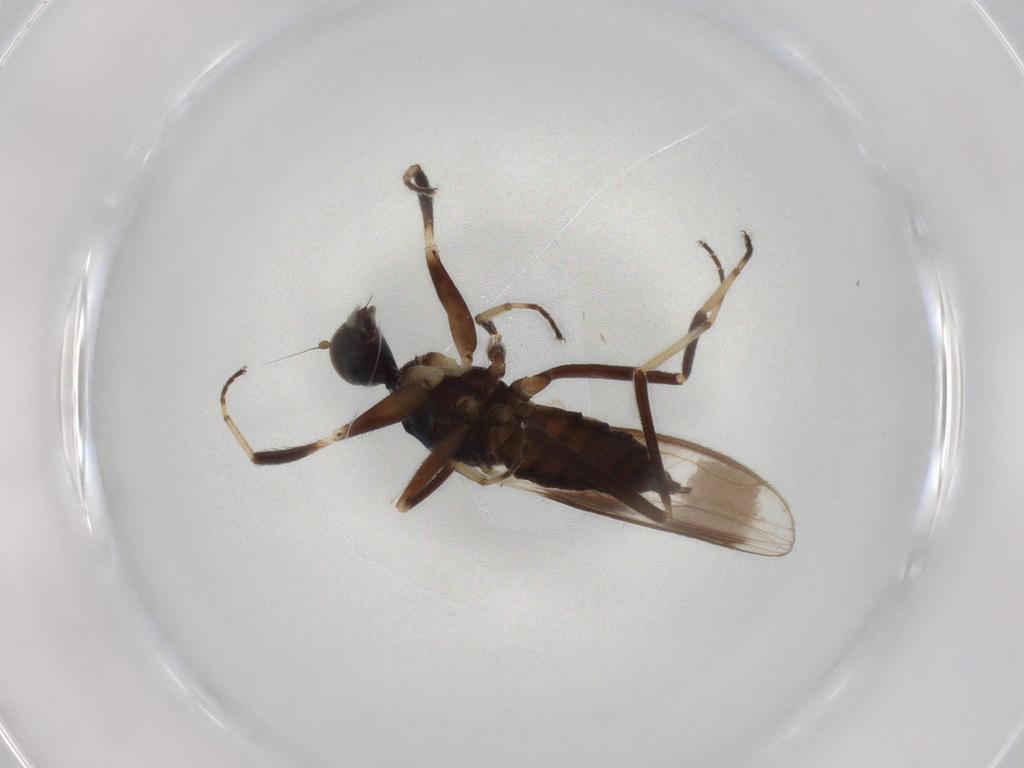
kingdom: Animalia
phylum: Arthropoda
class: Insecta
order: Diptera
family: Hybotidae
